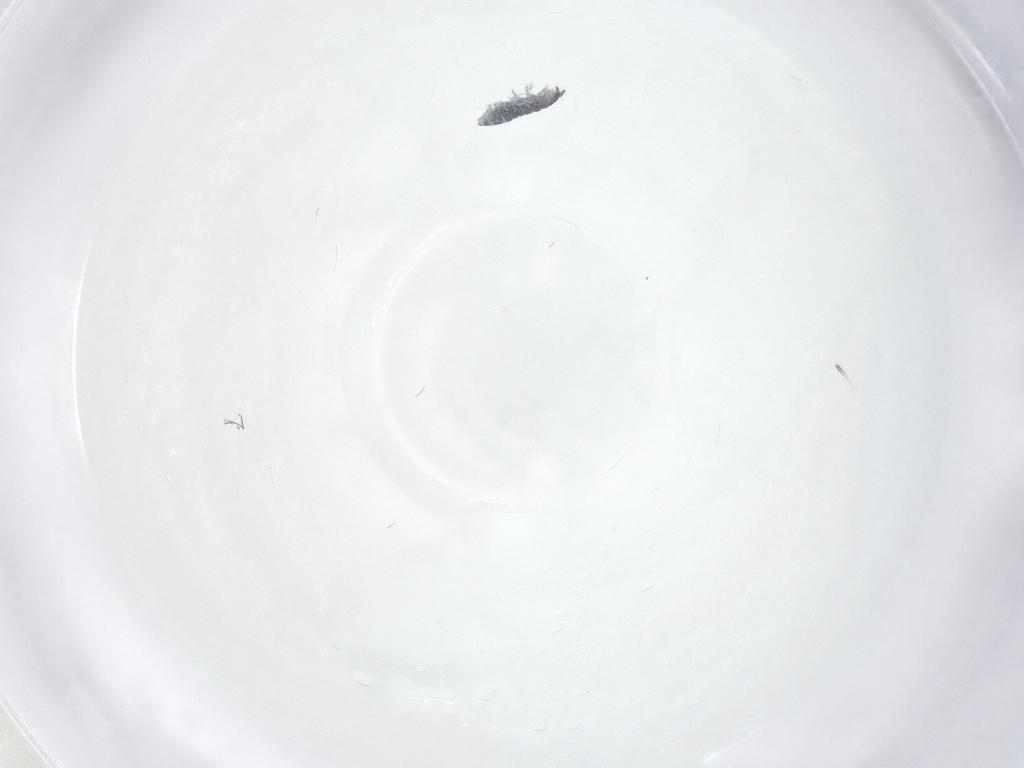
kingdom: Animalia
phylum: Arthropoda
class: Collembola
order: Poduromorpha
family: Hypogastruridae
